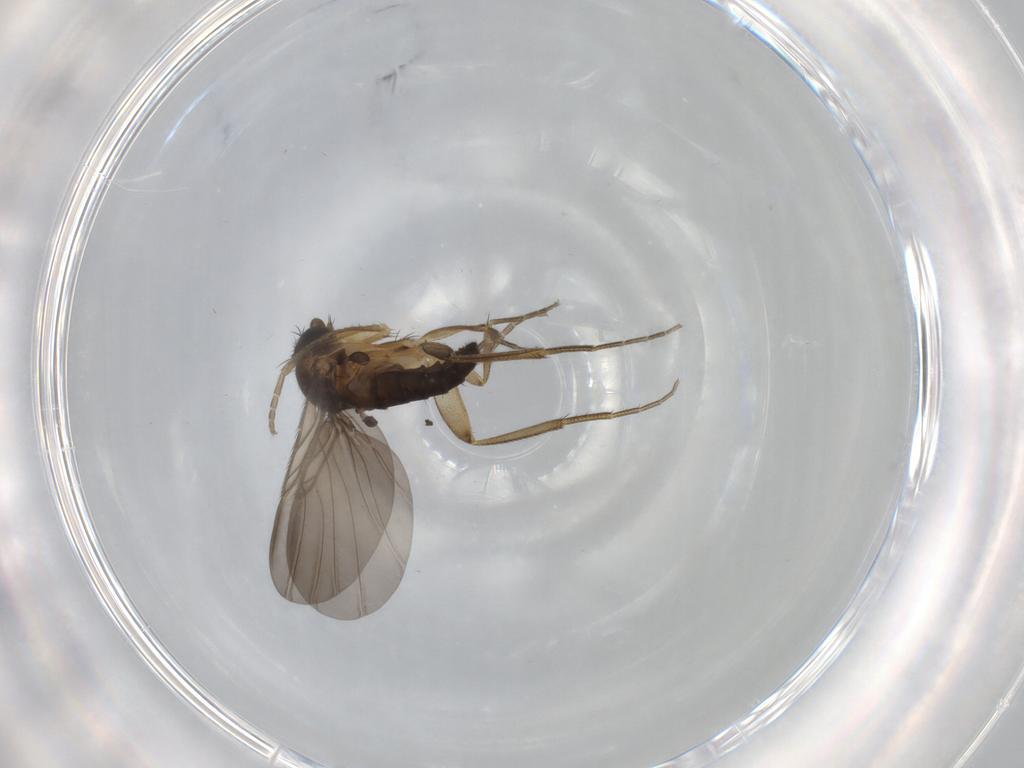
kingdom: Animalia
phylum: Arthropoda
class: Insecta
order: Diptera
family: Phoridae
